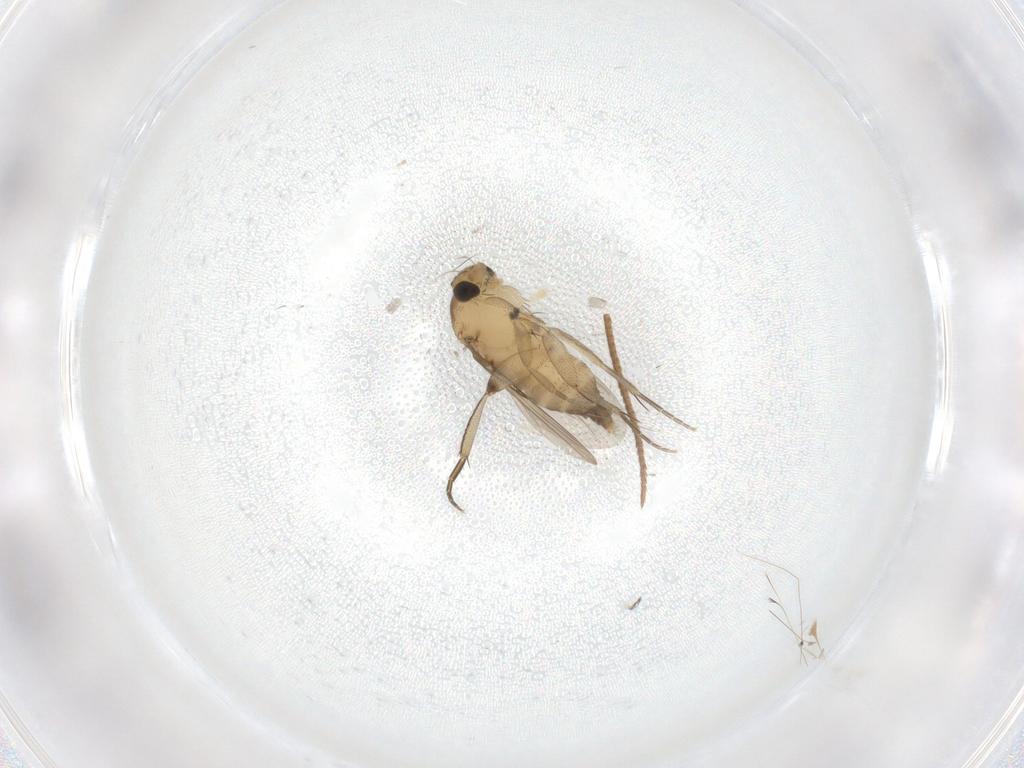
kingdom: Animalia
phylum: Arthropoda
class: Insecta
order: Diptera
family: Phoridae
